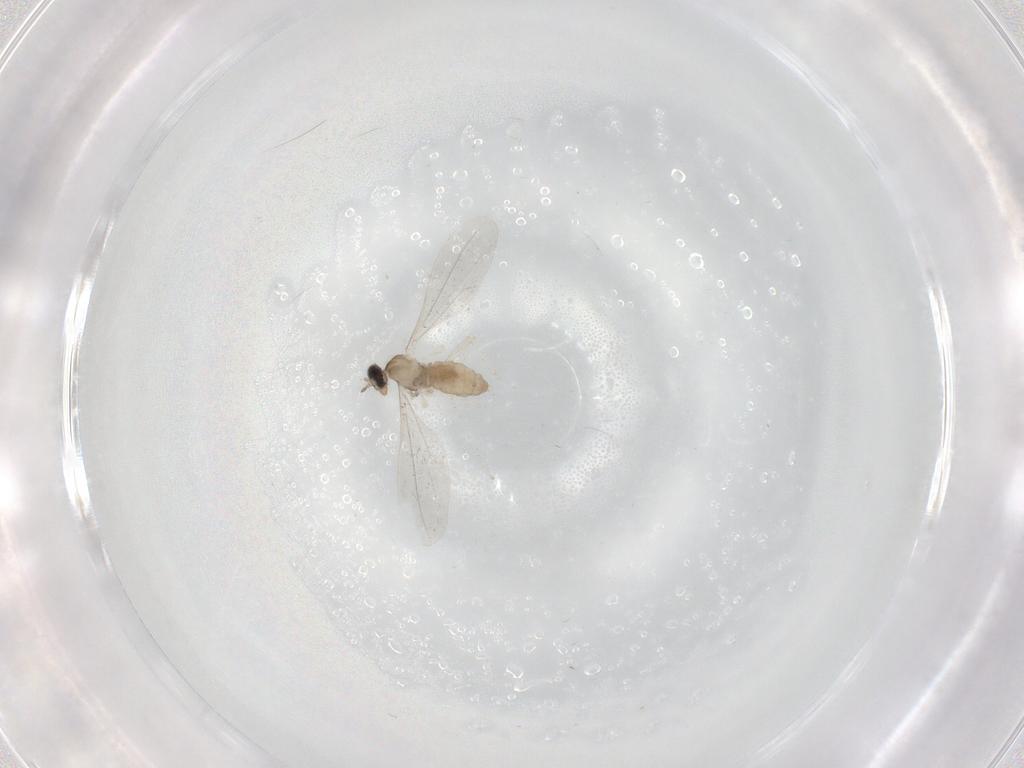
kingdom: Animalia
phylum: Arthropoda
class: Insecta
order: Diptera
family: Cecidomyiidae
